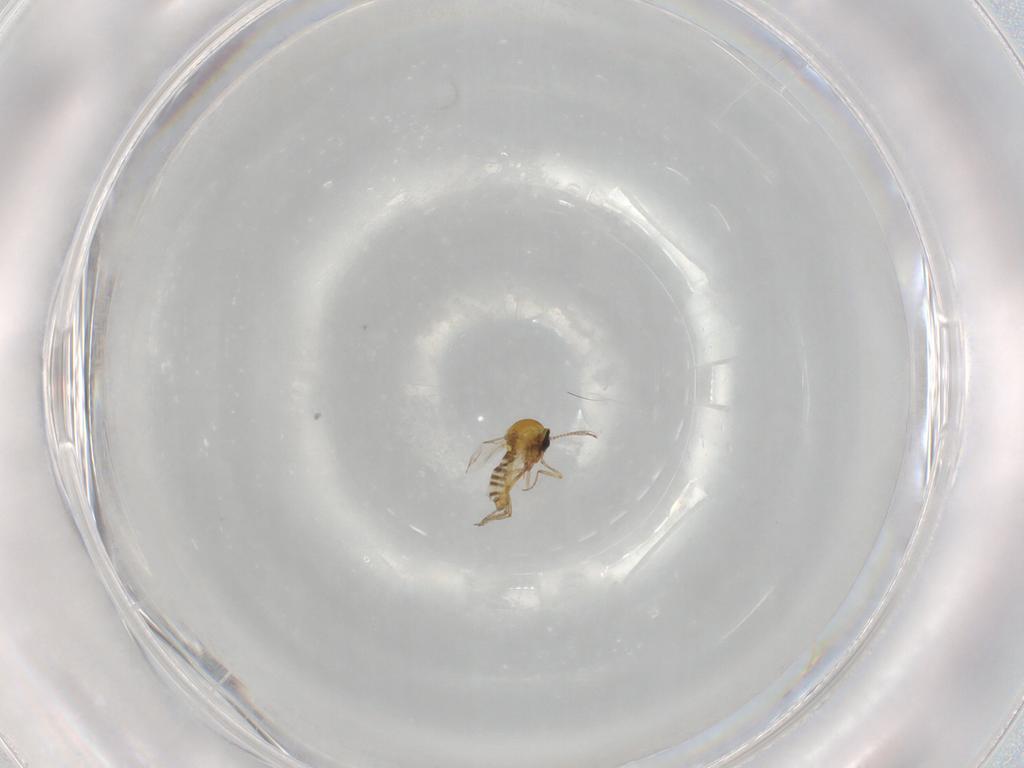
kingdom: Animalia
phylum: Arthropoda
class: Insecta
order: Diptera
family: Ceratopogonidae
